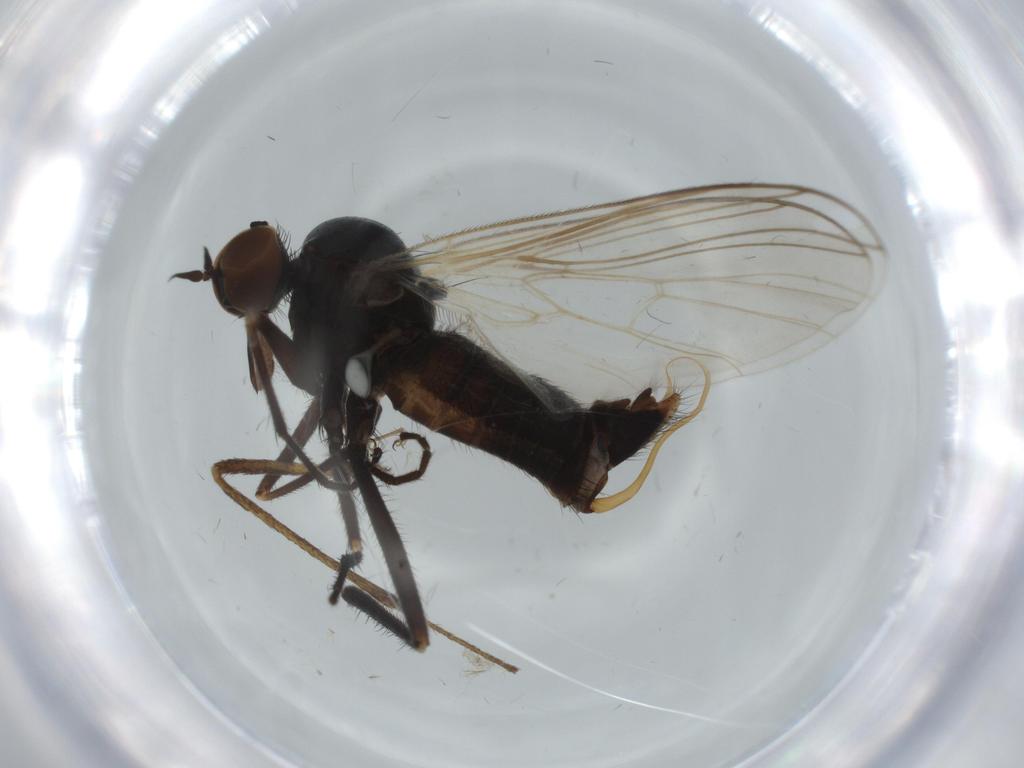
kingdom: Animalia
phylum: Arthropoda
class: Insecta
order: Diptera
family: Empididae
